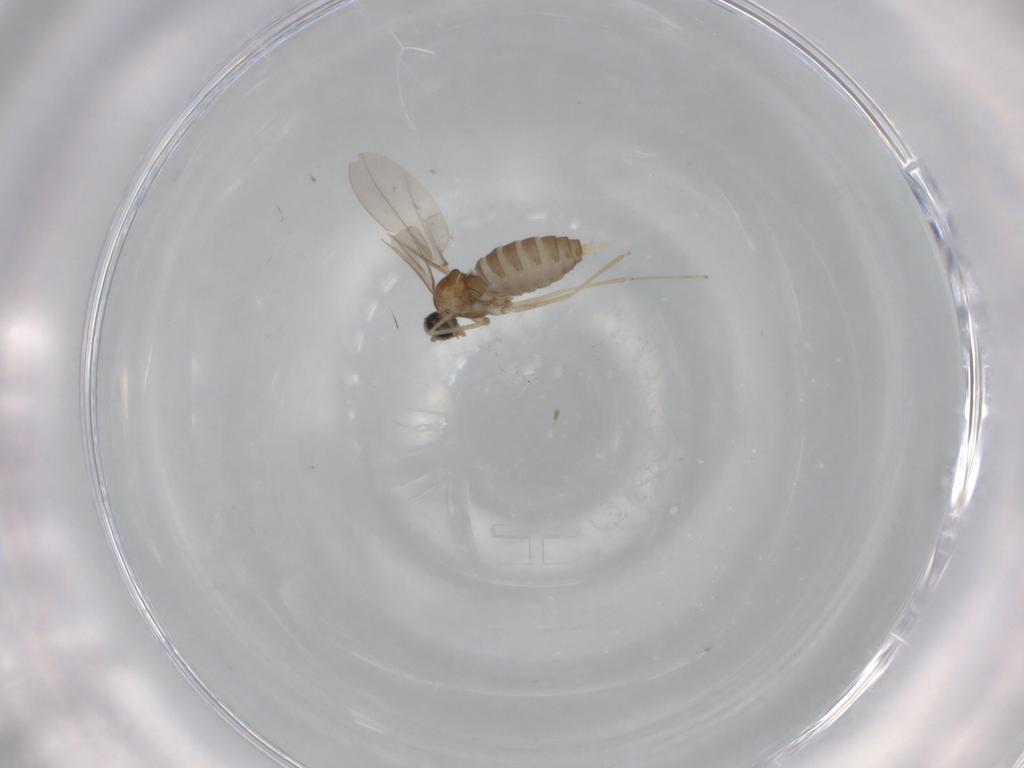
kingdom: Animalia
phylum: Arthropoda
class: Insecta
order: Diptera
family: Cecidomyiidae
